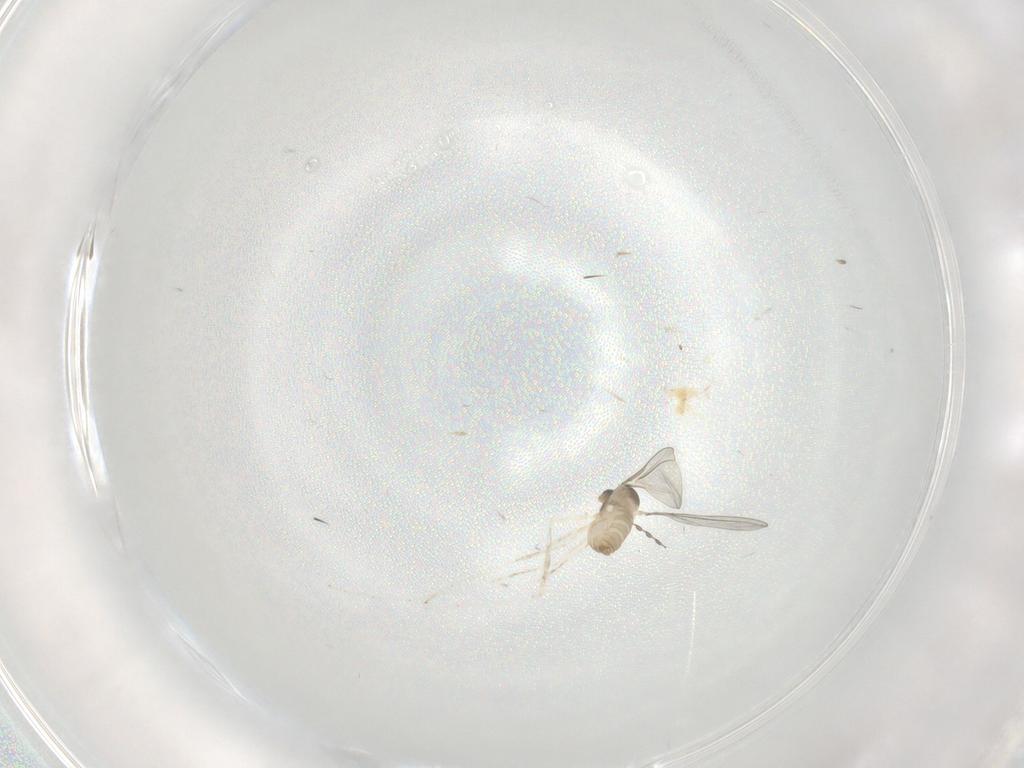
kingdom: Animalia
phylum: Arthropoda
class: Insecta
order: Diptera
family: Cecidomyiidae
